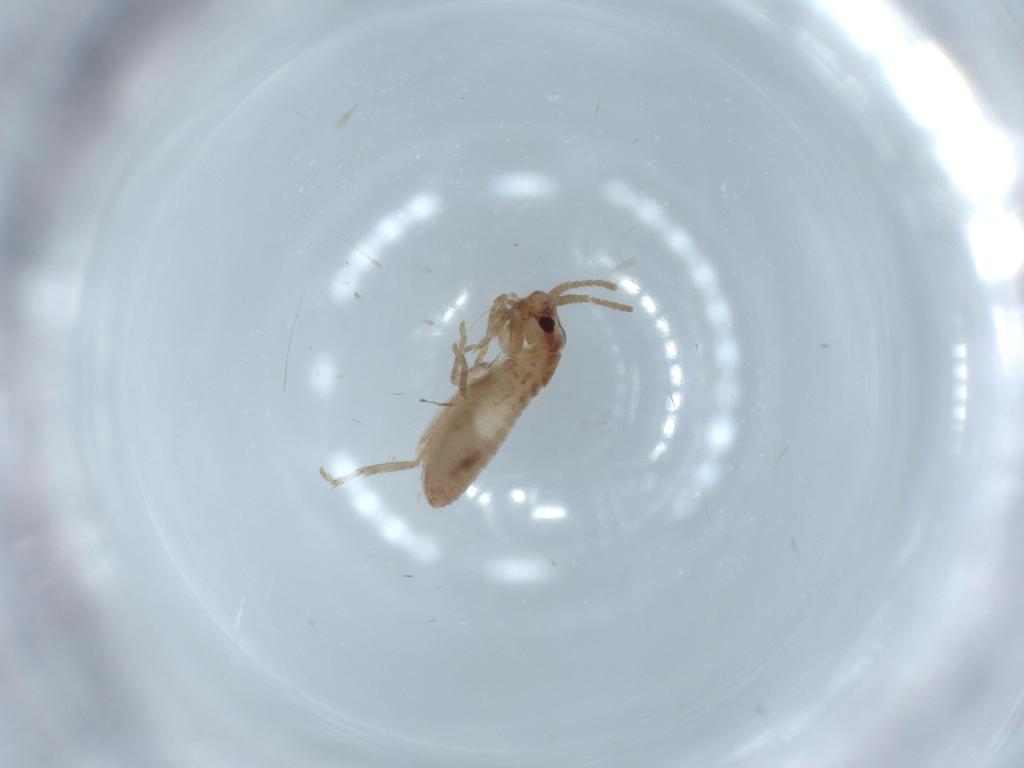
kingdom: Animalia
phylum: Arthropoda
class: Insecta
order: Orthoptera
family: Mogoplistidae
